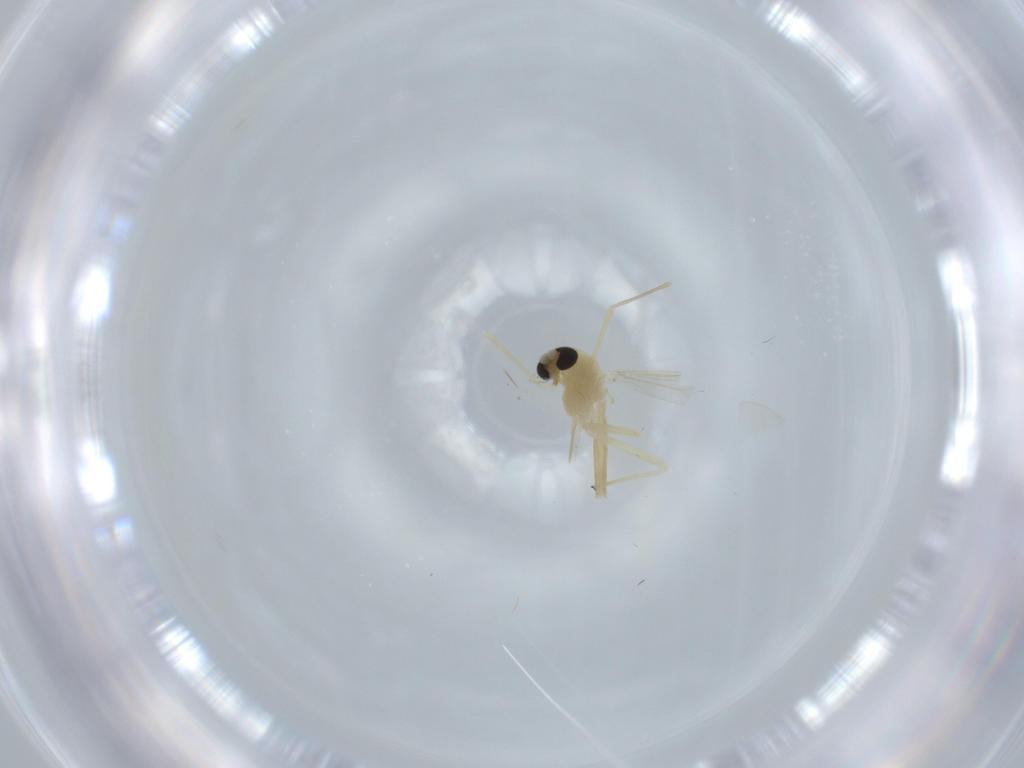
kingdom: Animalia
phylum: Arthropoda
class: Insecta
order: Diptera
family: Chironomidae
